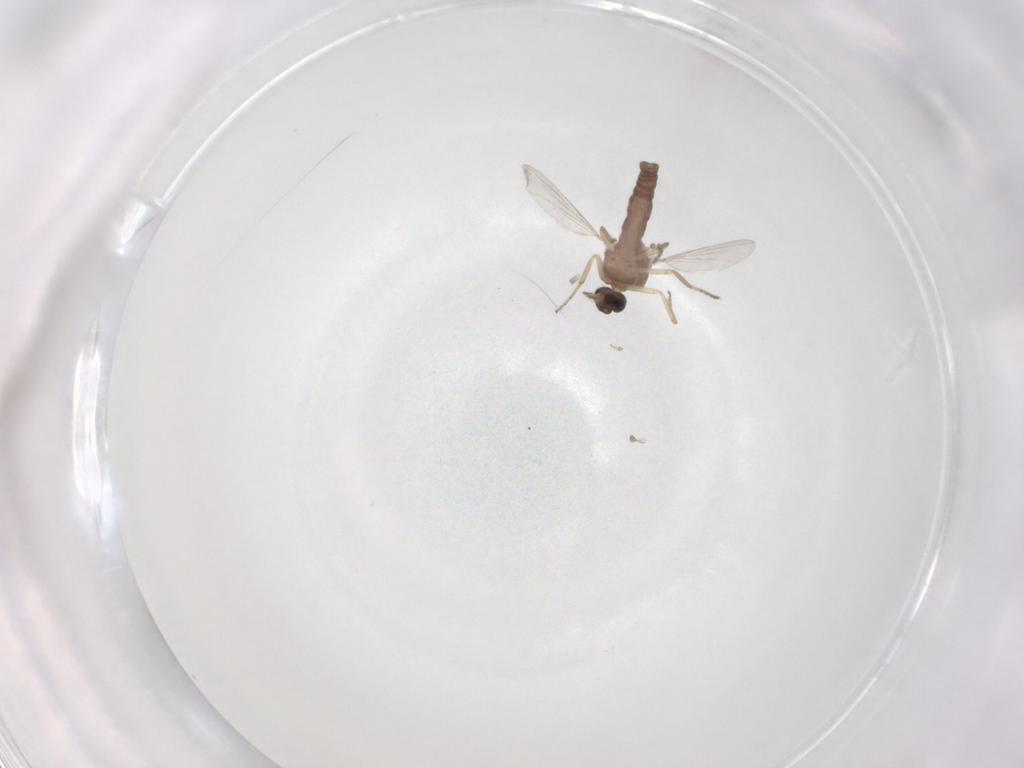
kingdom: Animalia
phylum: Arthropoda
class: Insecta
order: Diptera
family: Ceratopogonidae
